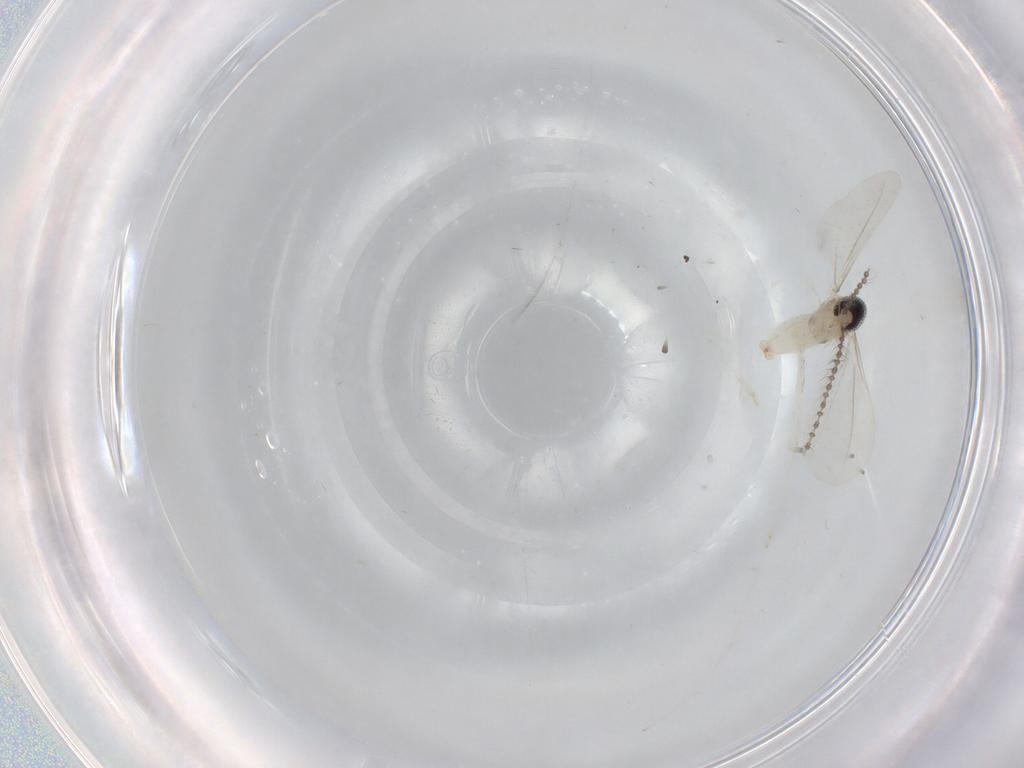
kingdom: Animalia
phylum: Arthropoda
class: Insecta
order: Diptera
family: Cecidomyiidae
